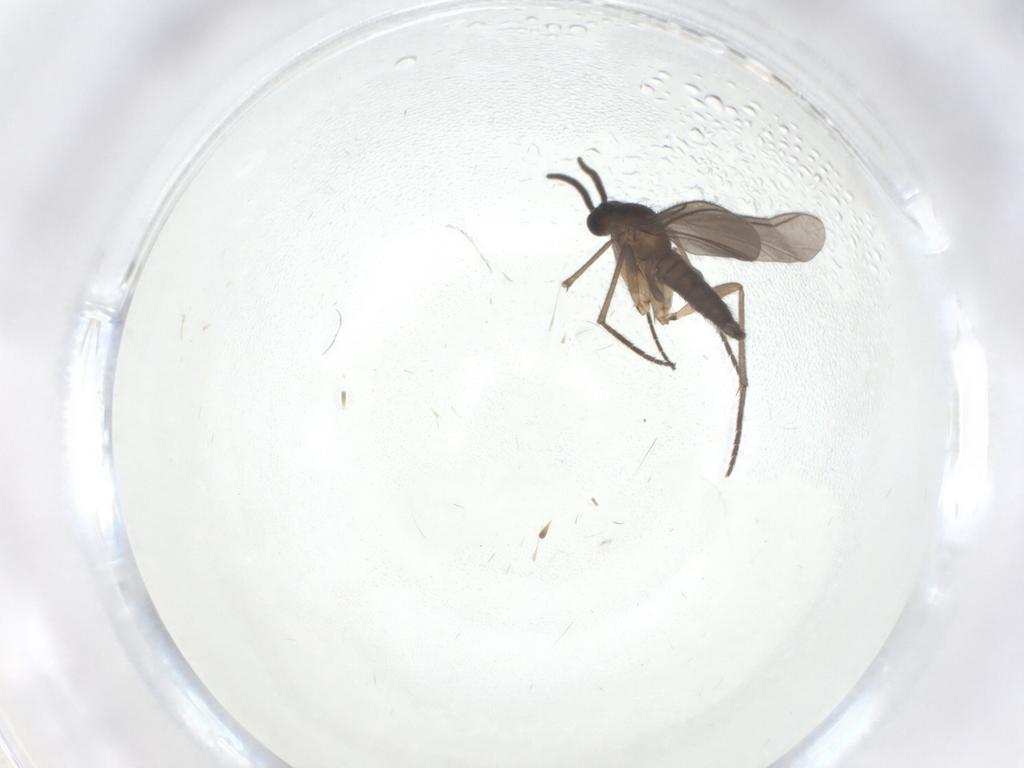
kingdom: Animalia
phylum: Arthropoda
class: Insecta
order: Diptera
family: Sciaridae
